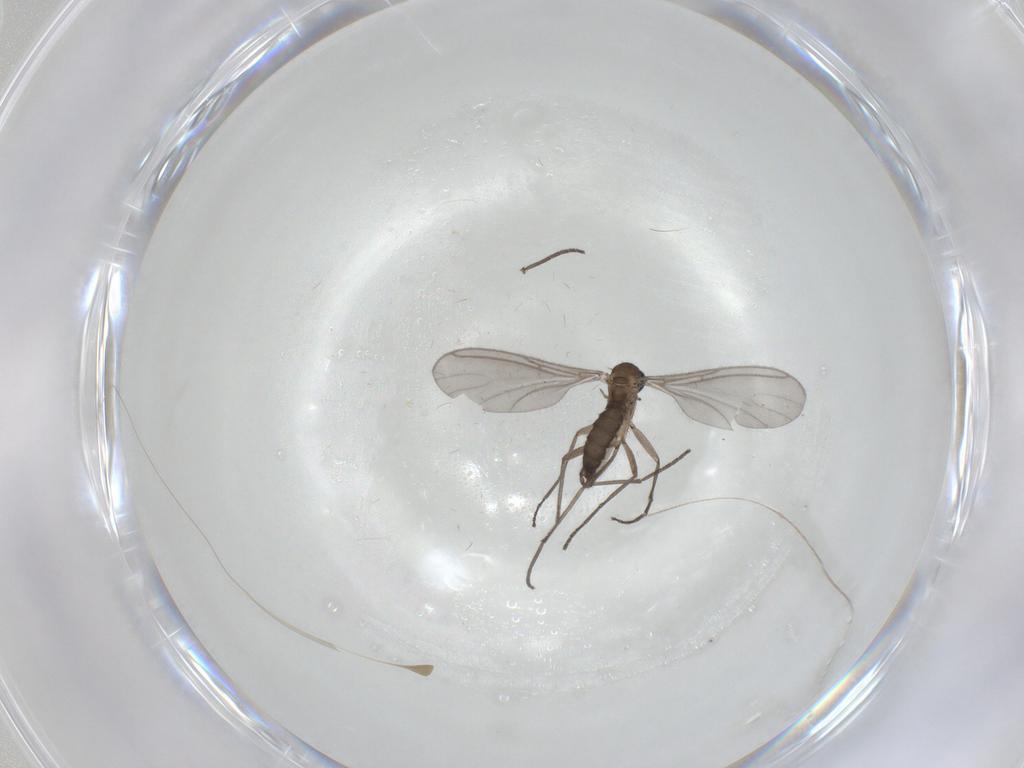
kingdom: Animalia
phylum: Arthropoda
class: Insecta
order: Diptera
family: Sciaridae
